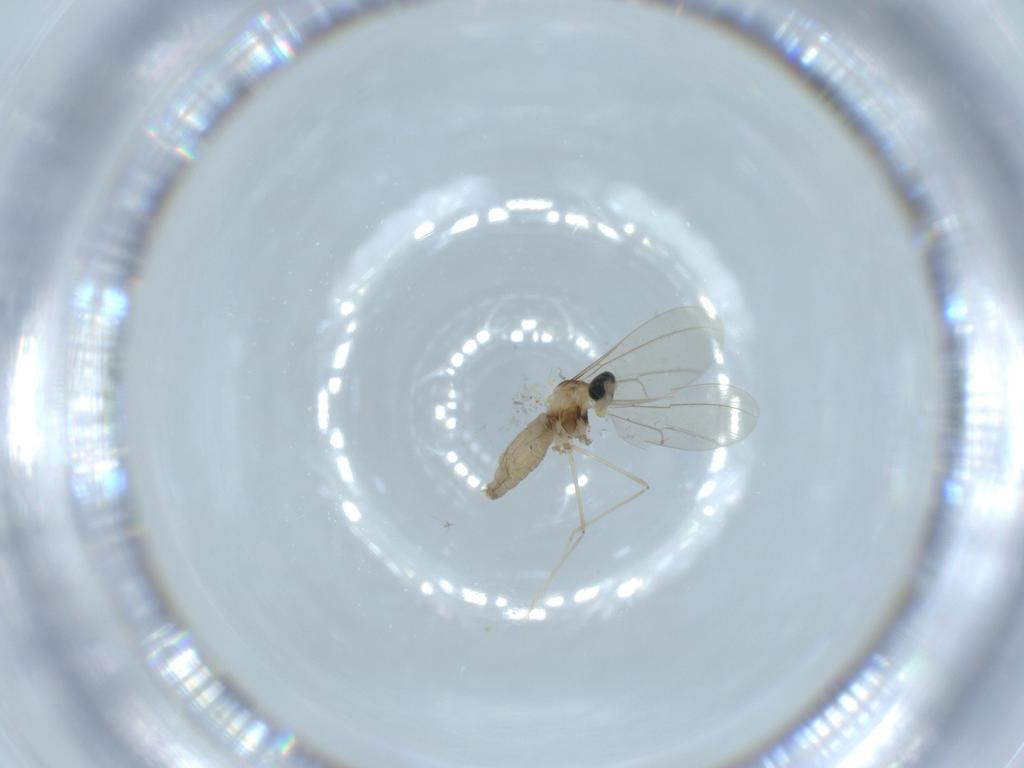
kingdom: Animalia
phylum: Arthropoda
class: Insecta
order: Diptera
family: Cecidomyiidae
